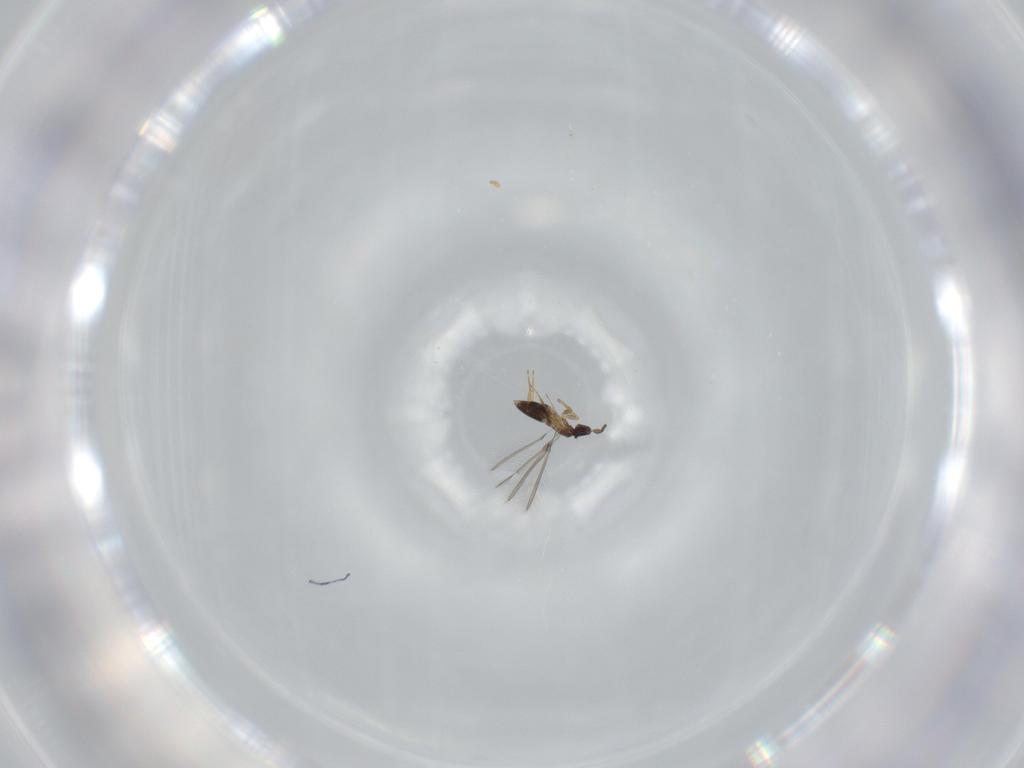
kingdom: Animalia
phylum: Arthropoda
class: Insecta
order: Hymenoptera
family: Mymaridae
